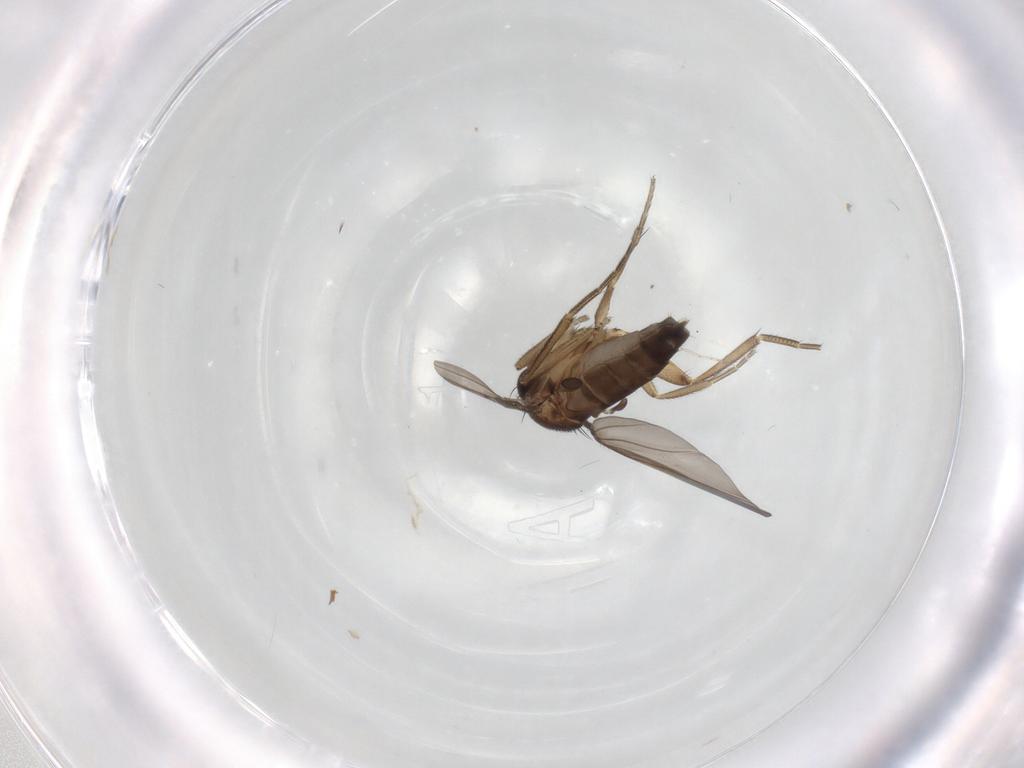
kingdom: Animalia
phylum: Arthropoda
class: Insecta
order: Diptera
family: Phoridae
